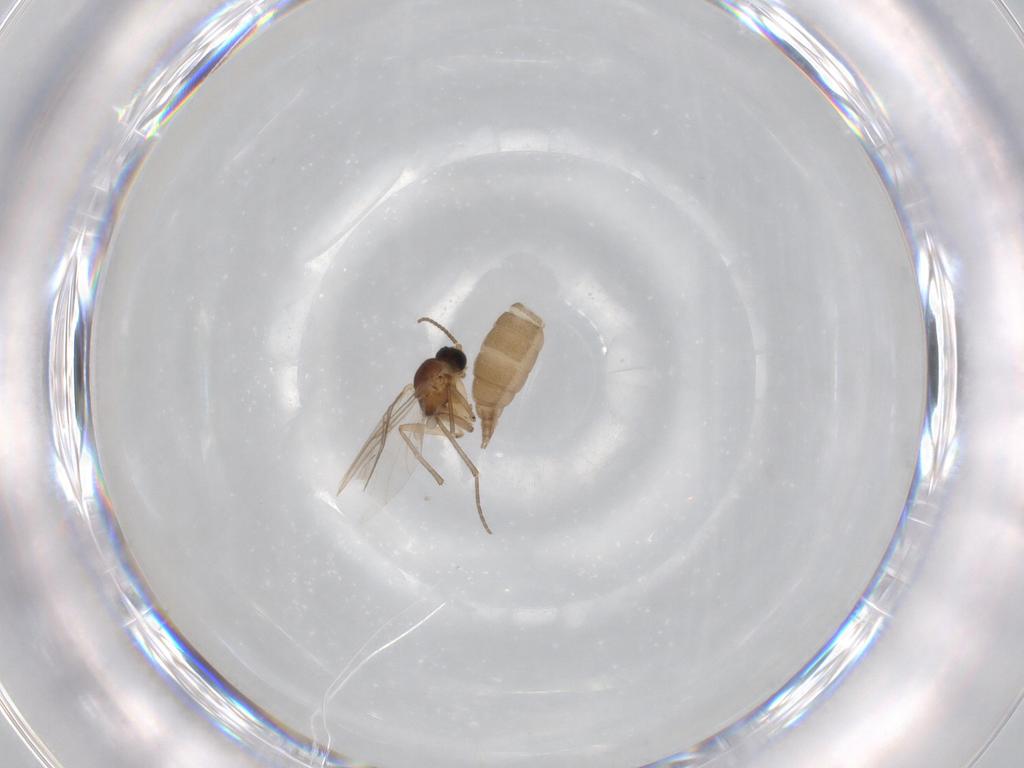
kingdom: Animalia
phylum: Arthropoda
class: Insecta
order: Diptera
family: Sciaridae
